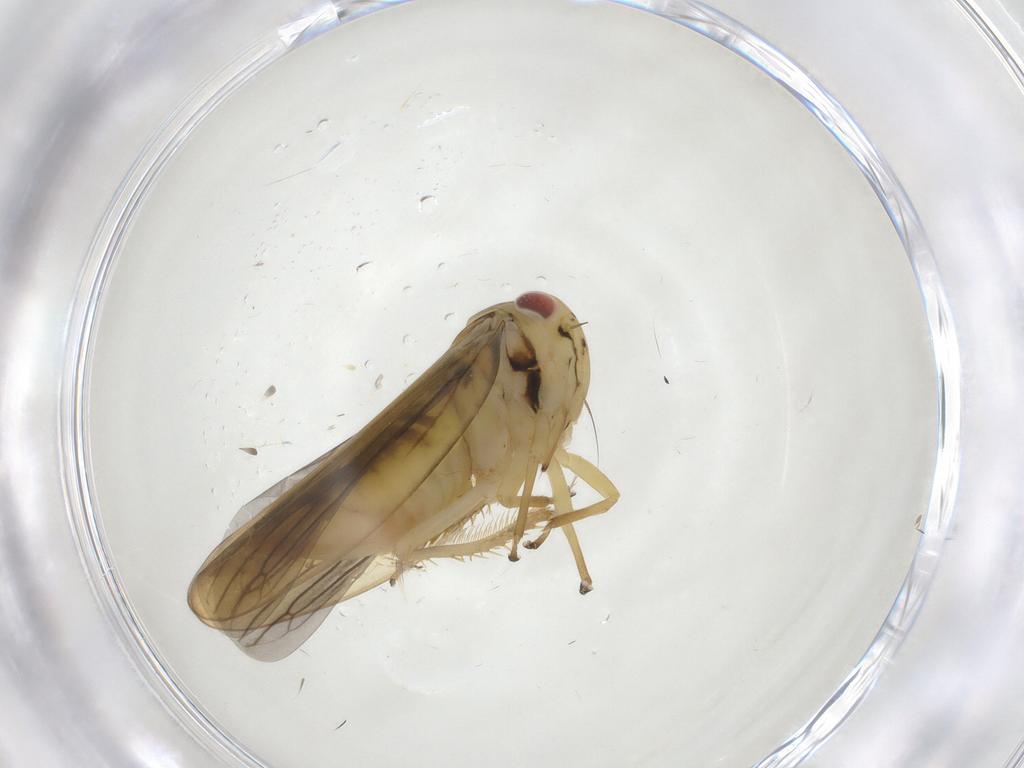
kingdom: Animalia
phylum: Arthropoda
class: Insecta
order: Hemiptera
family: Cicadellidae
